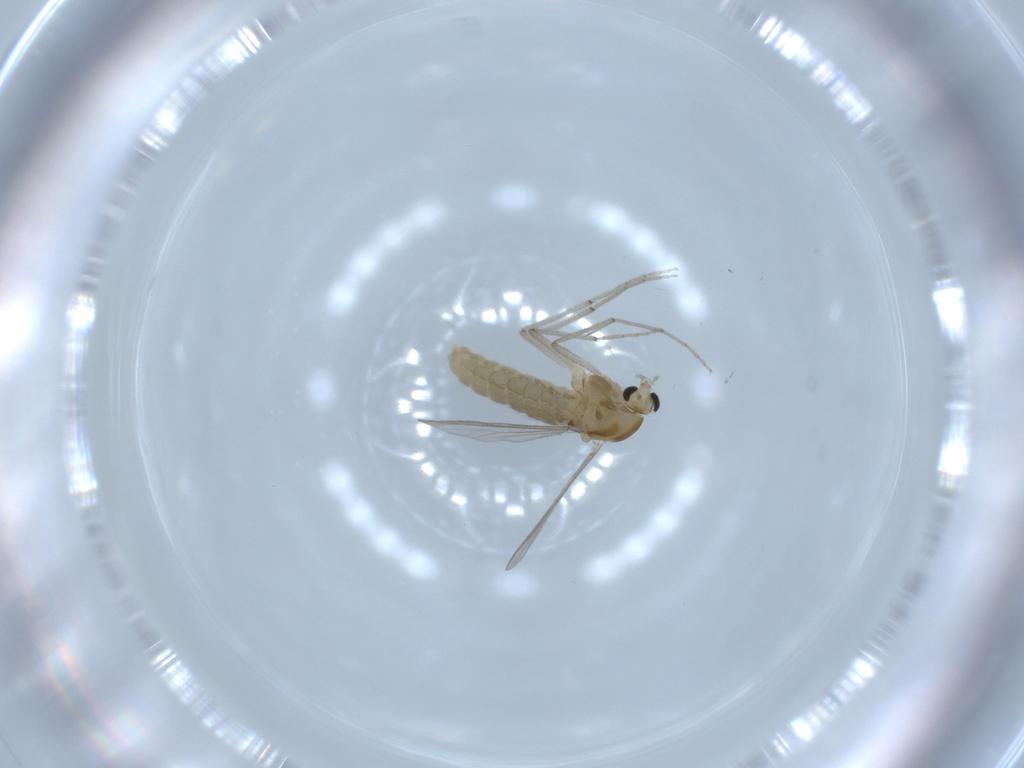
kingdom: Animalia
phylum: Arthropoda
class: Insecta
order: Diptera
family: Chironomidae
